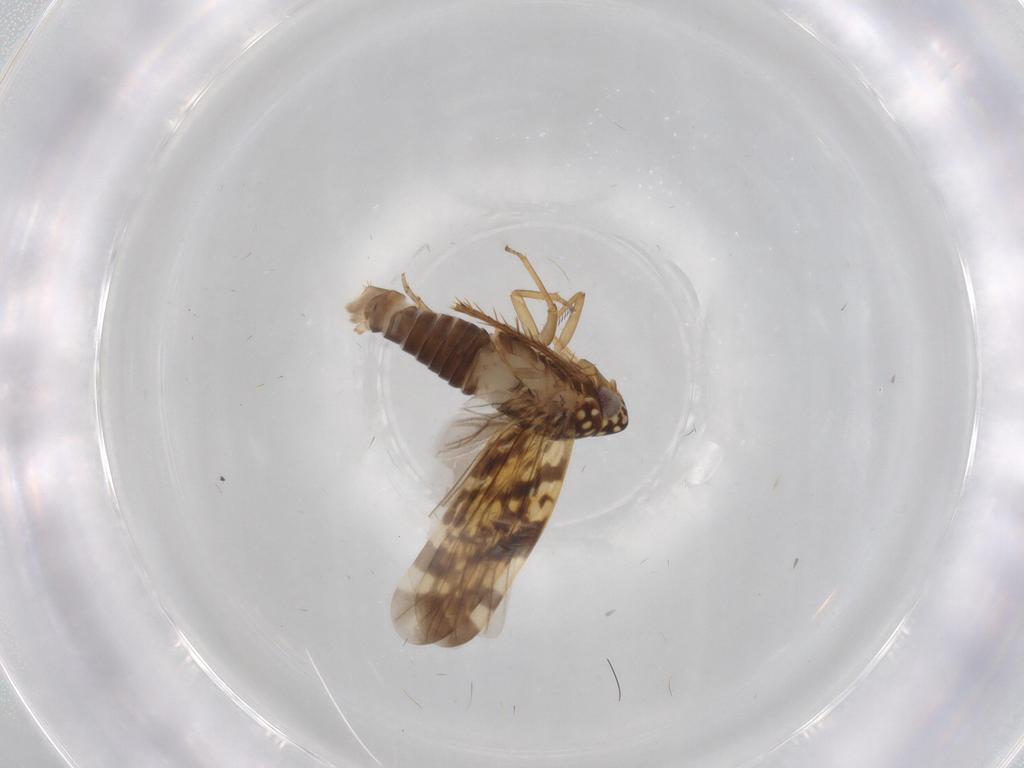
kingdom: Animalia
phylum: Arthropoda
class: Insecta
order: Hemiptera
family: Cicadellidae
